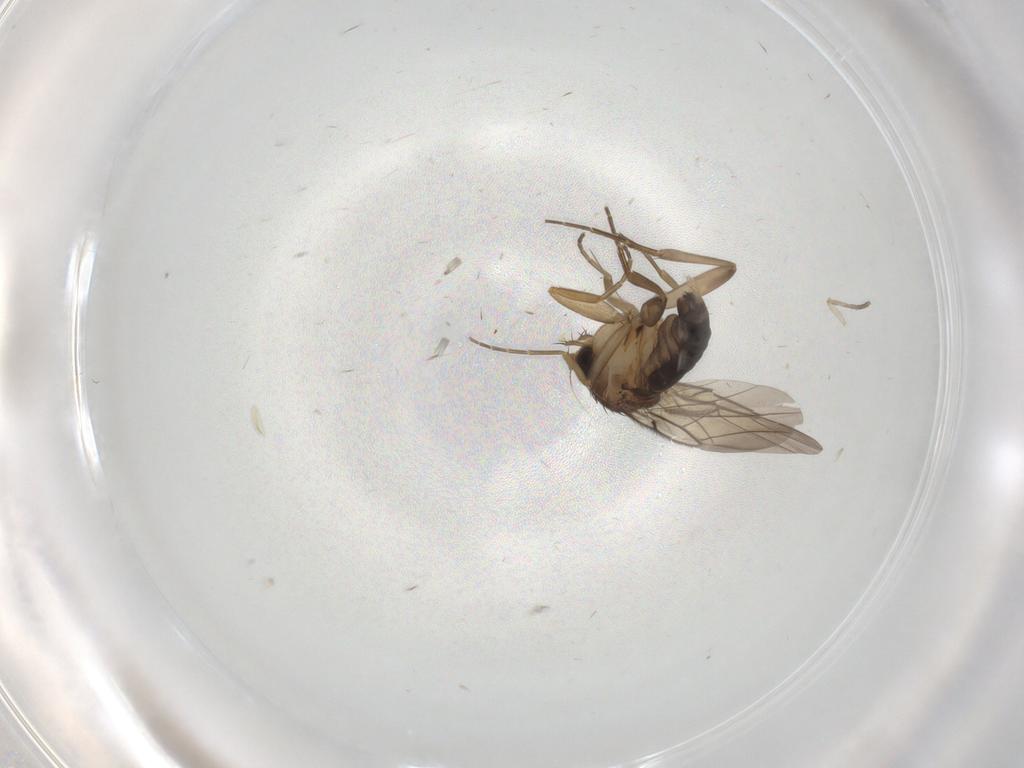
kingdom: Animalia
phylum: Arthropoda
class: Insecta
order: Diptera
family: Ceratopogonidae
